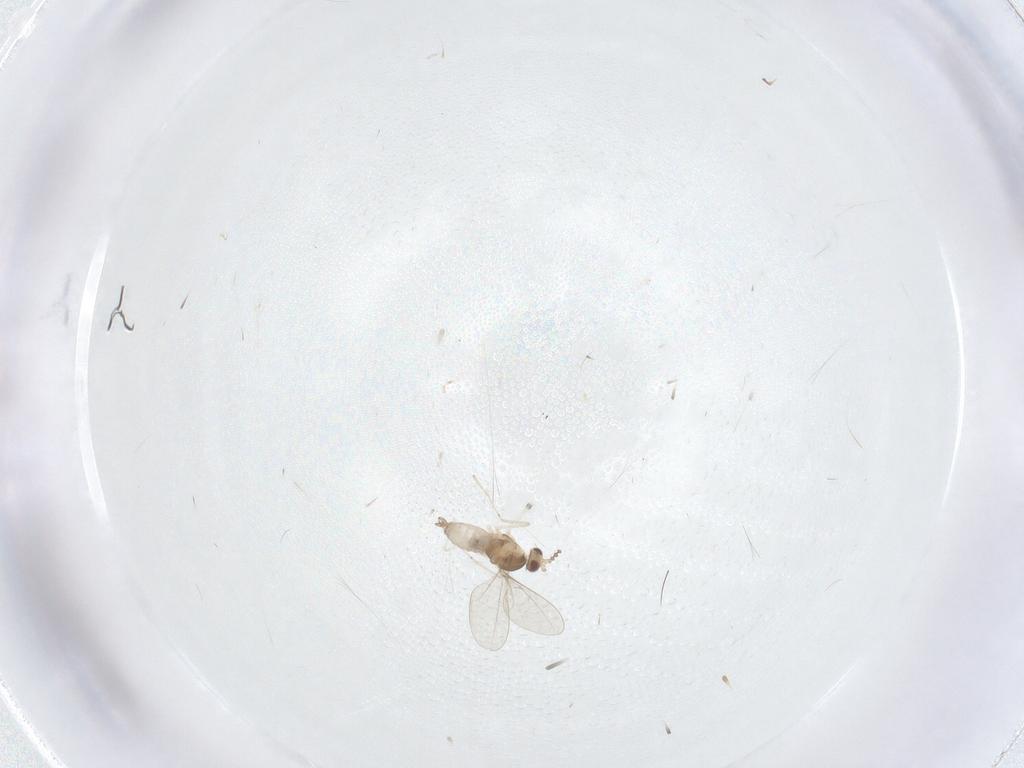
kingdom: Animalia
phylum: Arthropoda
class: Insecta
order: Diptera
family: Cecidomyiidae
